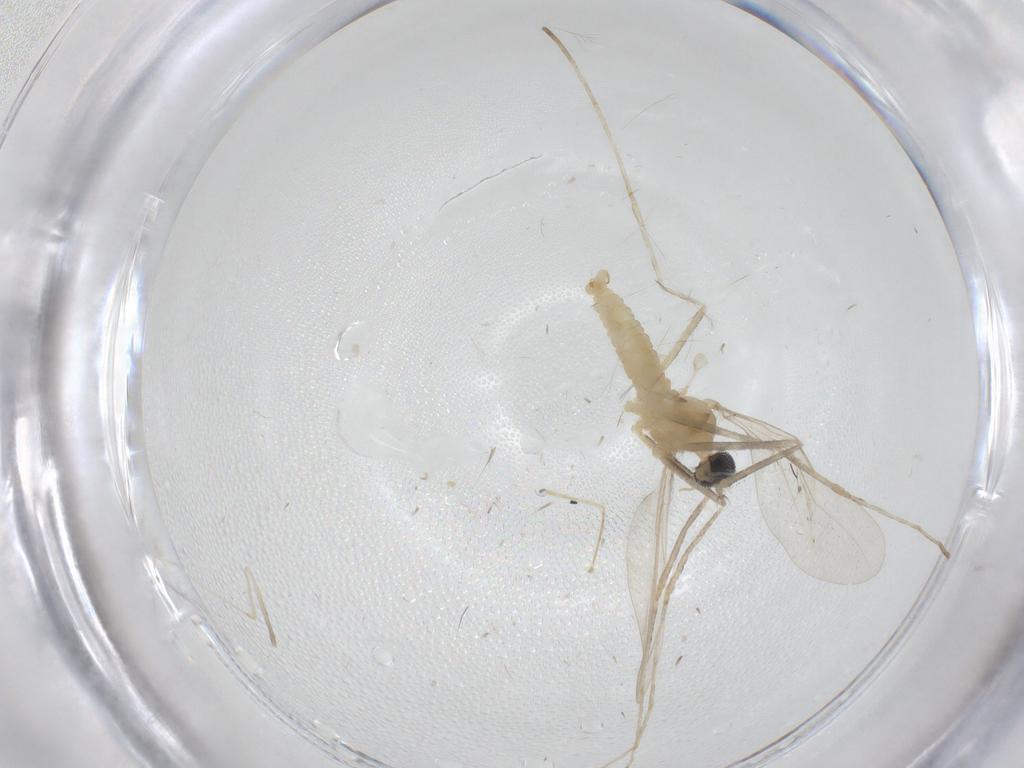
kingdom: Animalia
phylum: Arthropoda
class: Insecta
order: Diptera
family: Cecidomyiidae
